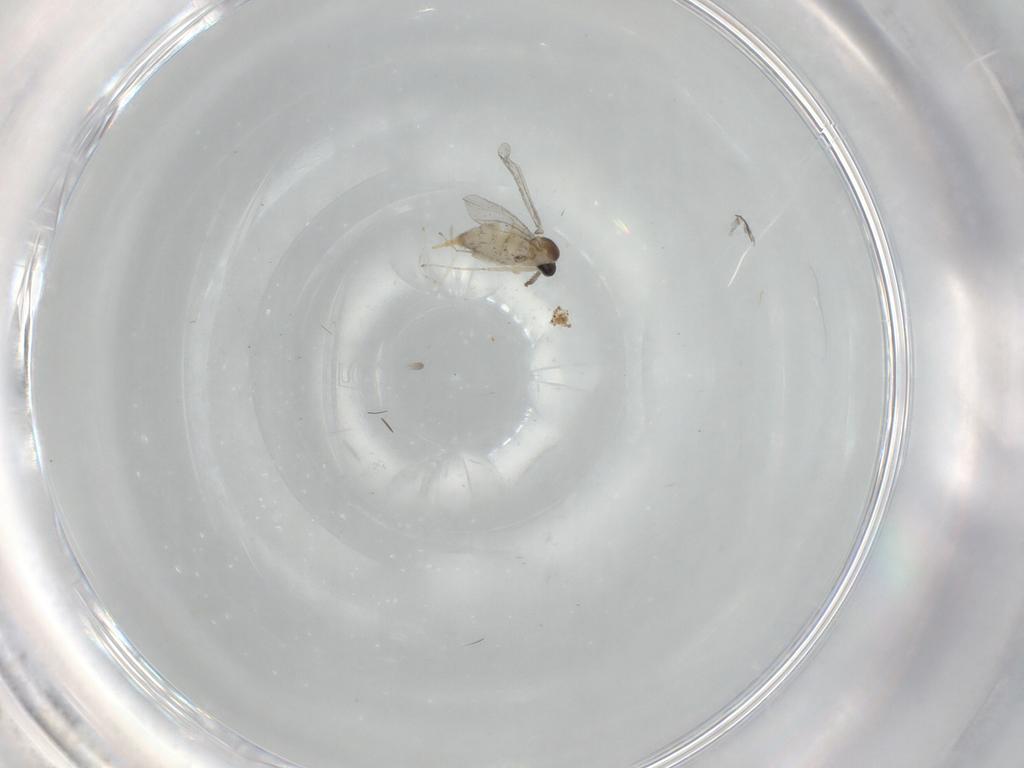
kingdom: Animalia
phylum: Arthropoda
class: Insecta
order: Diptera
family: Cecidomyiidae
